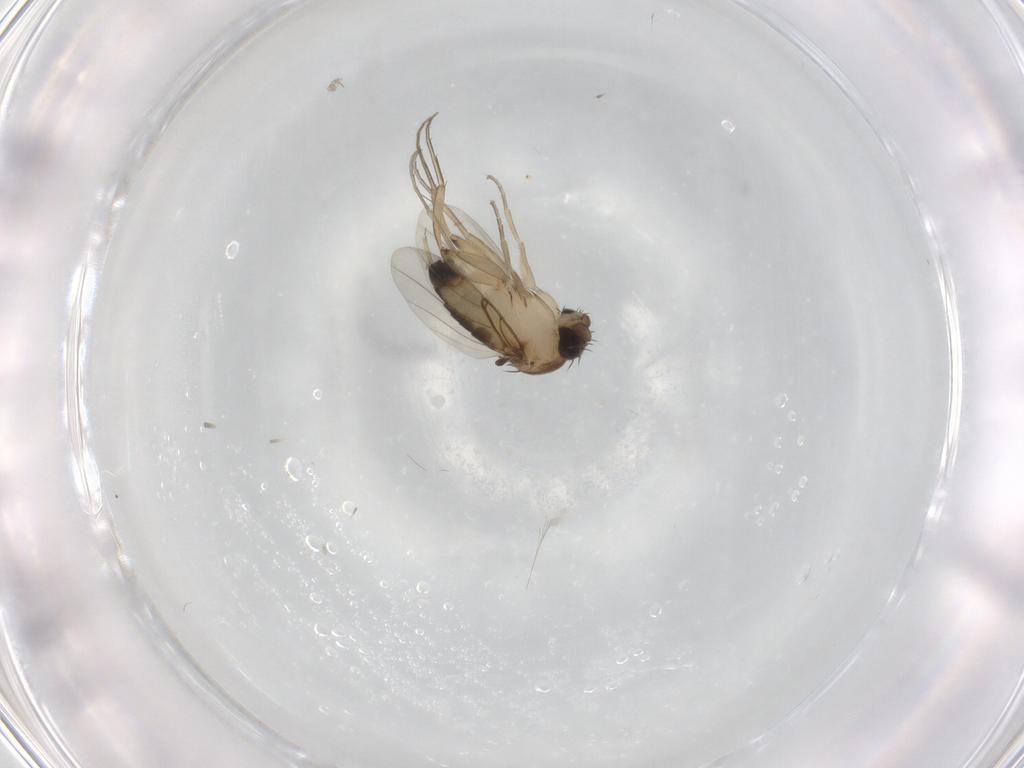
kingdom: Animalia
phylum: Arthropoda
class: Insecta
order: Diptera
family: Phoridae
